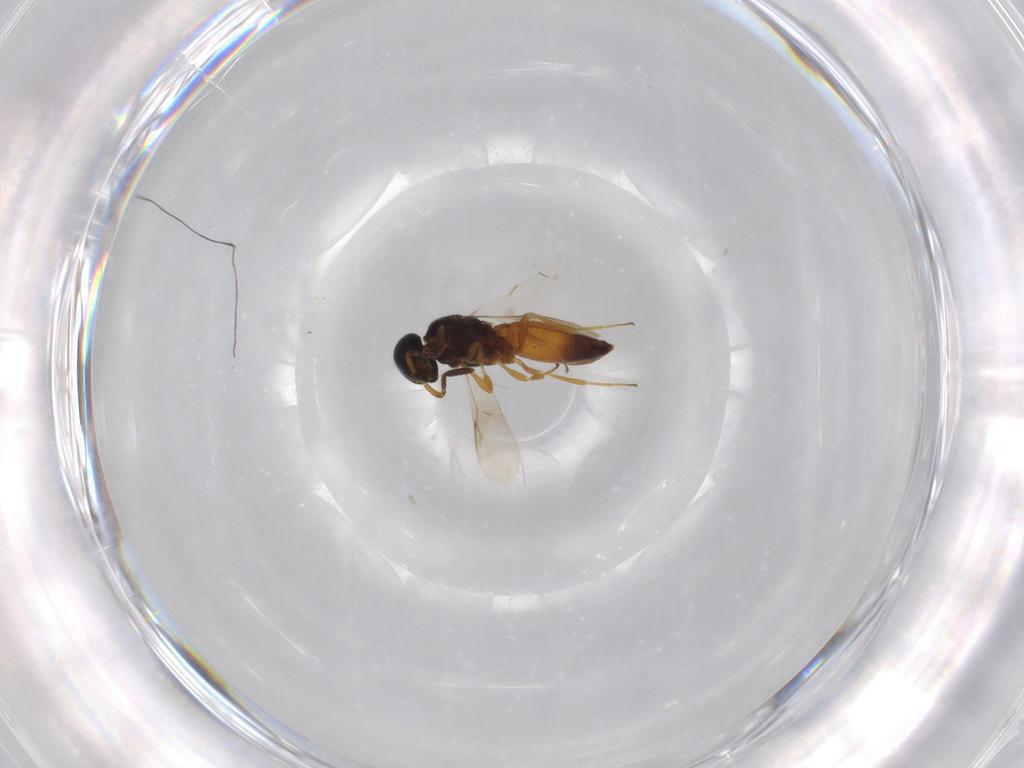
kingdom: Animalia
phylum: Arthropoda
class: Insecta
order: Hymenoptera
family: Scelionidae
